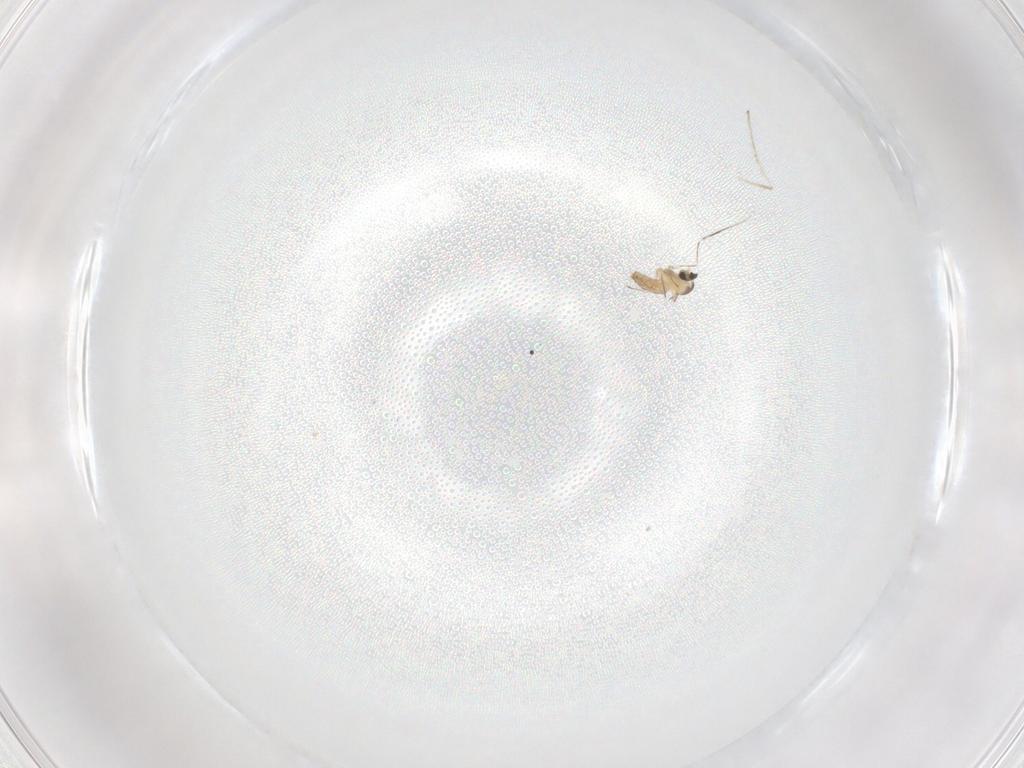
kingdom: Animalia
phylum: Arthropoda
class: Insecta
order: Diptera
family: Cecidomyiidae
